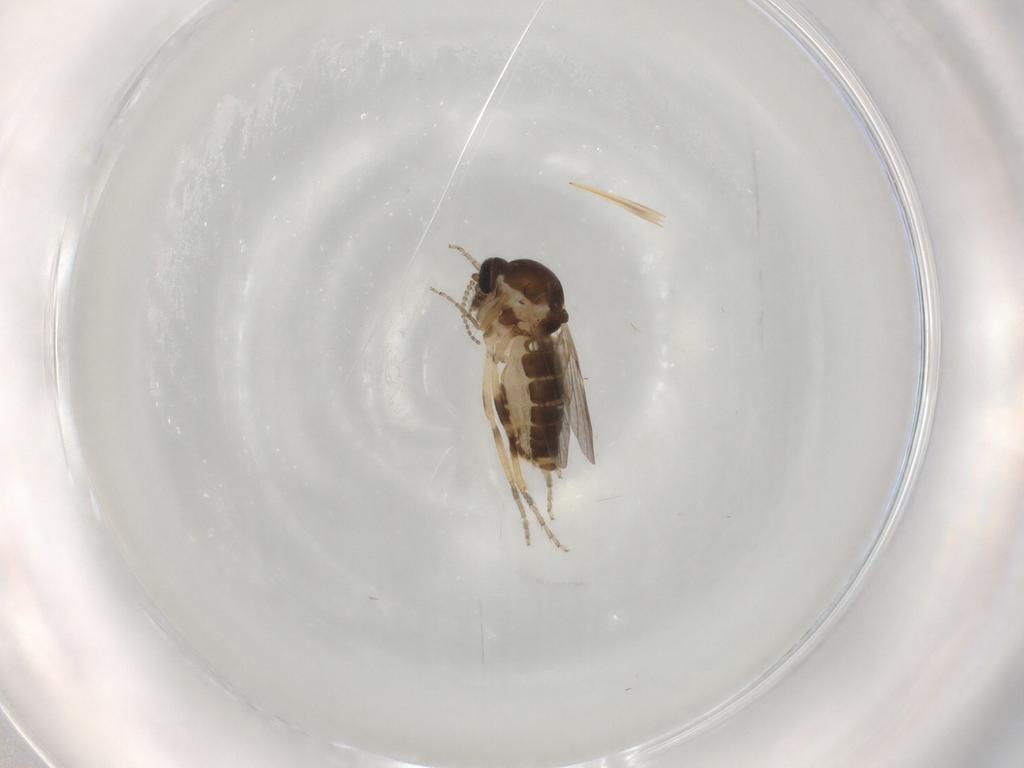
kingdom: Animalia
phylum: Arthropoda
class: Insecta
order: Diptera
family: Ceratopogonidae
